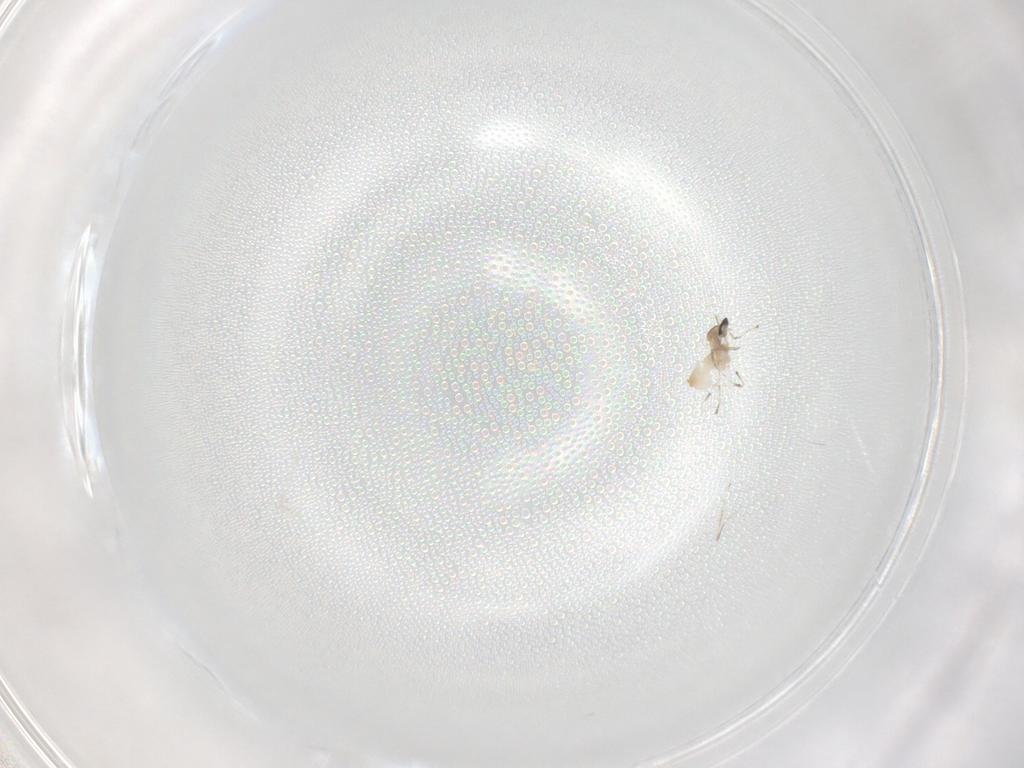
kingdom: Animalia
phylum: Arthropoda
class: Insecta
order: Diptera
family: Cecidomyiidae
